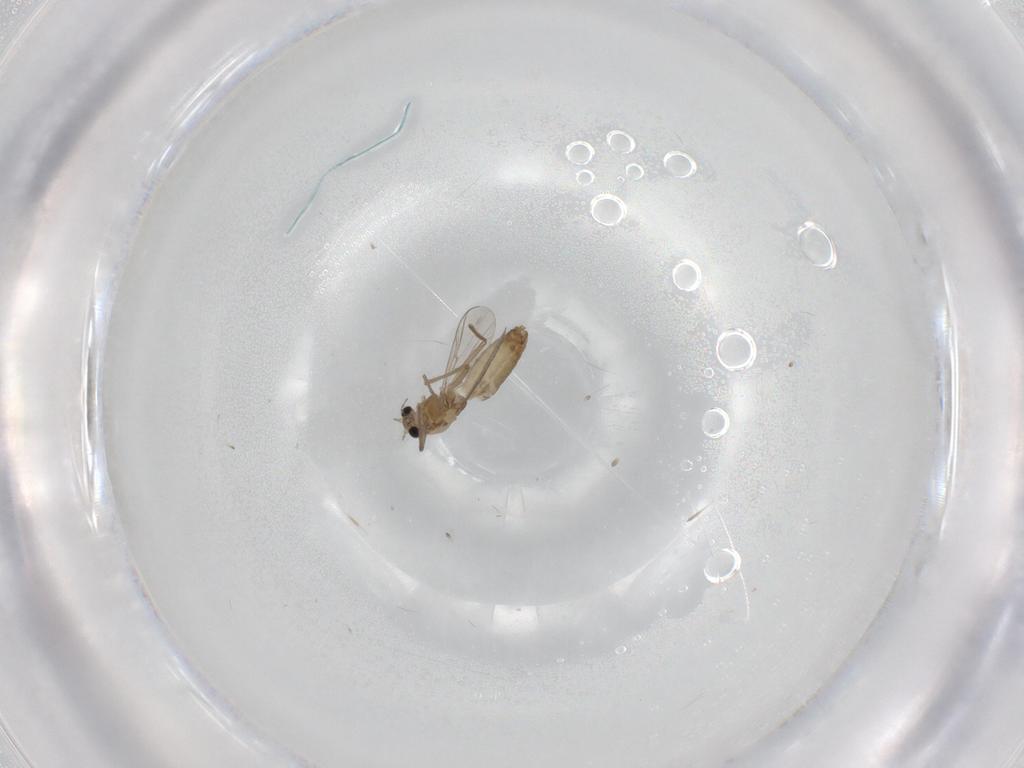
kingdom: Animalia
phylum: Arthropoda
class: Insecta
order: Diptera
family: Chironomidae
